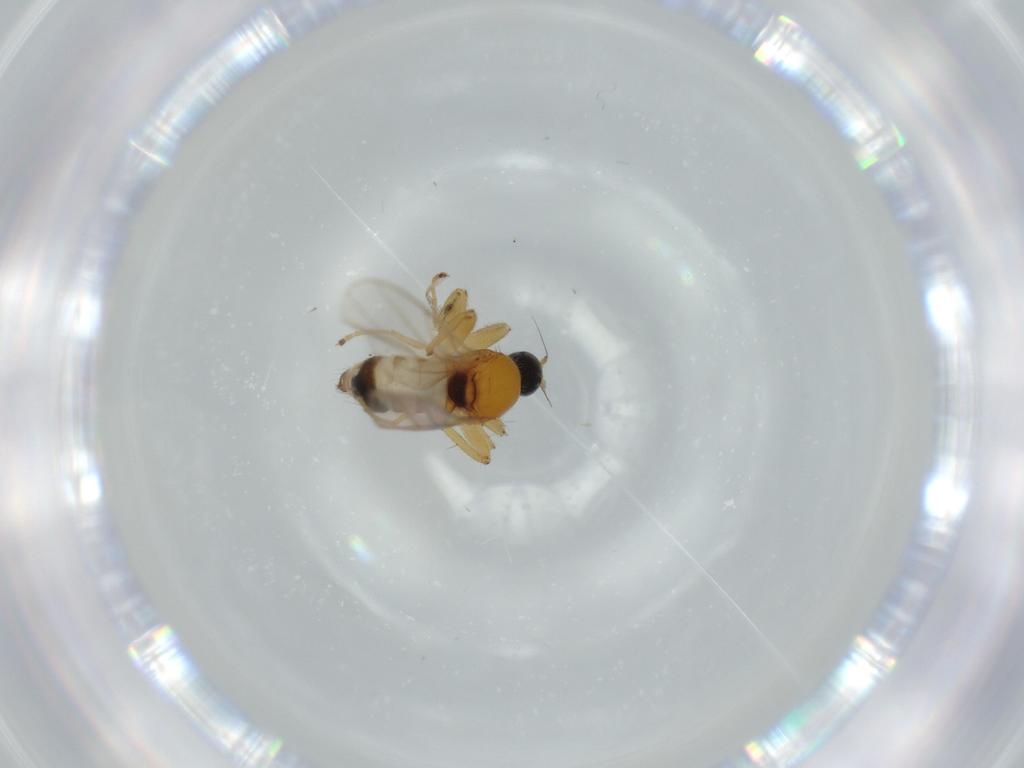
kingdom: Animalia
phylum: Arthropoda
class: Insecta
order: Diptera
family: Hybotidae
